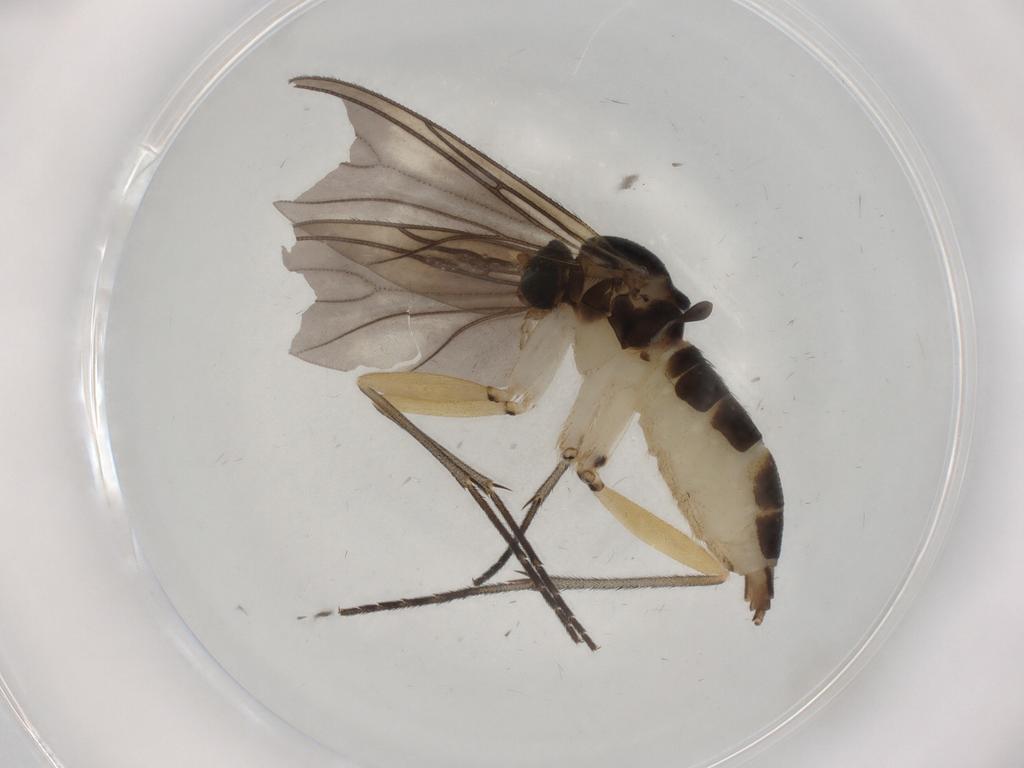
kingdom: Animalia
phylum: Arthropoda
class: Insecta
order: Diptera
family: Sciaridae
